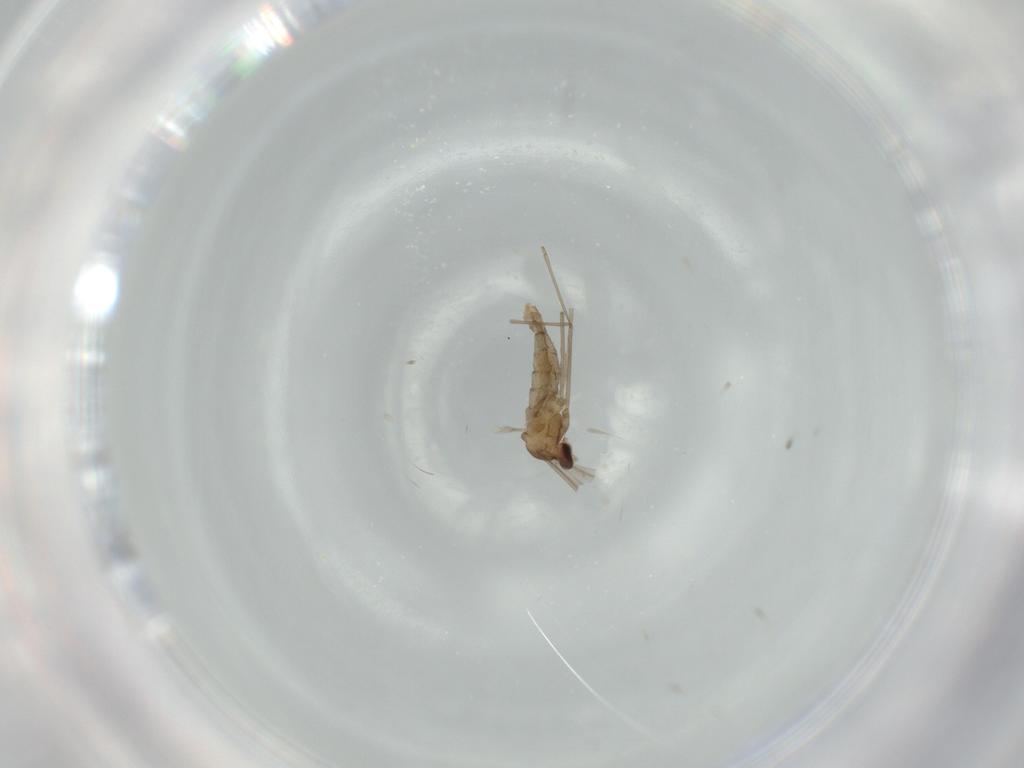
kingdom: Animalia
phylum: Arthropoda
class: Insecta
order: Diptera
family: Cecidomyiidae
